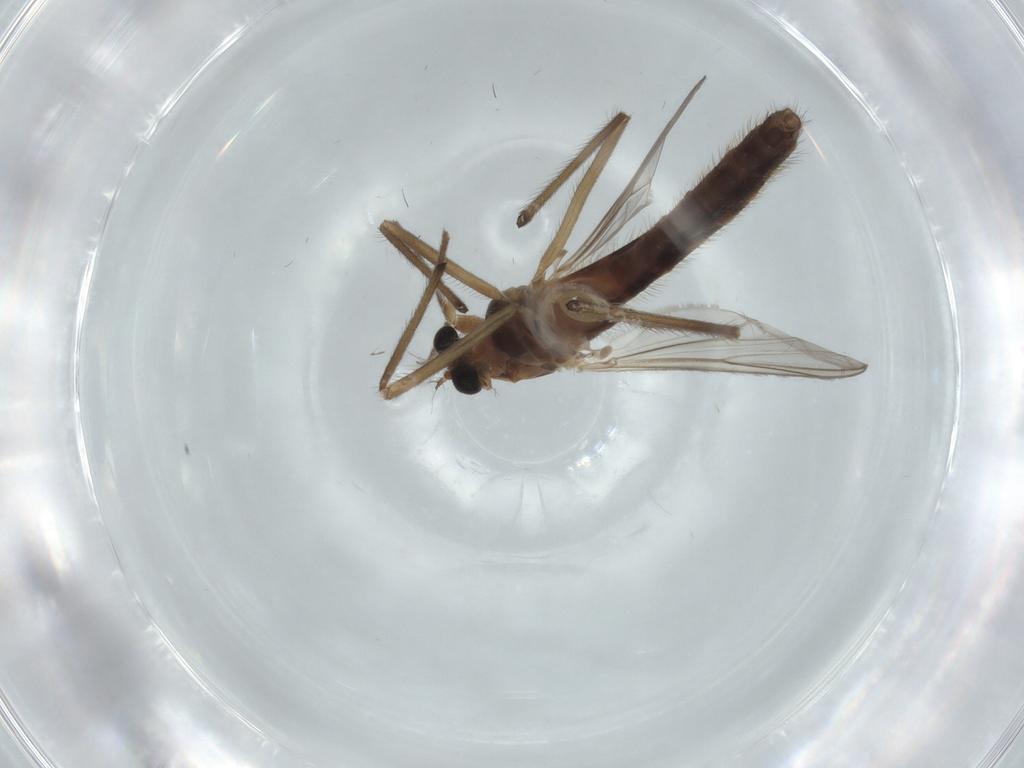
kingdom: Animalia
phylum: Arthropoda
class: Insecta
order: Diptera
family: Chironomidae
